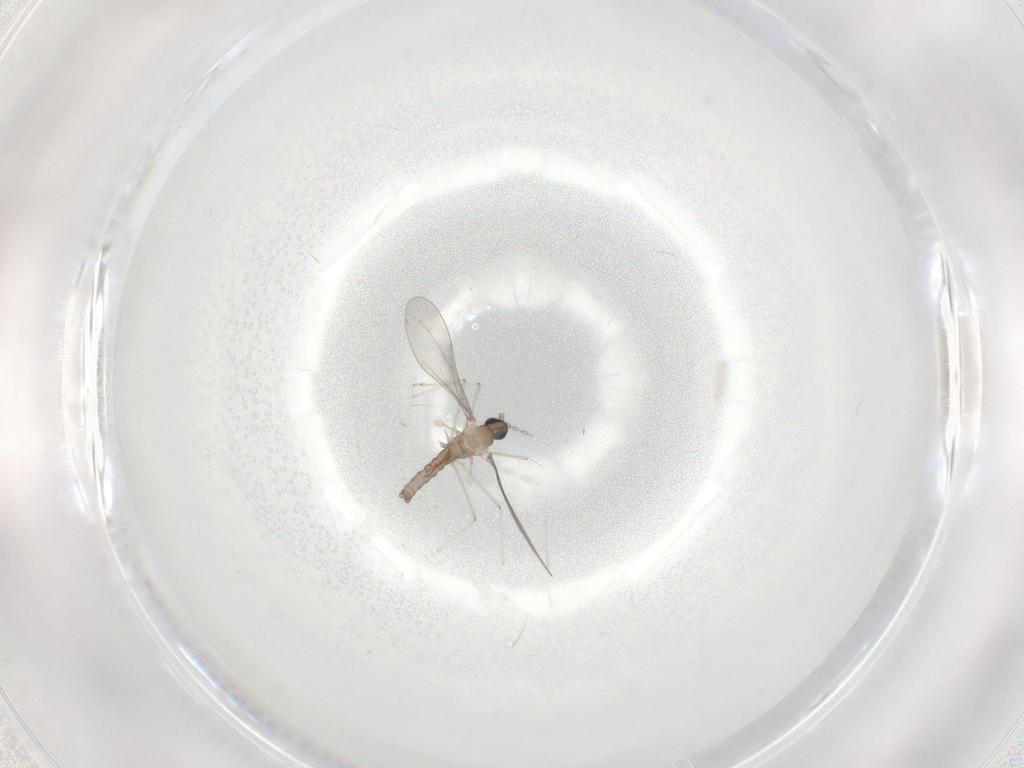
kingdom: Animalia
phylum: Arthropoda
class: Insecta
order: Diptera
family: Cecidomyiidae
